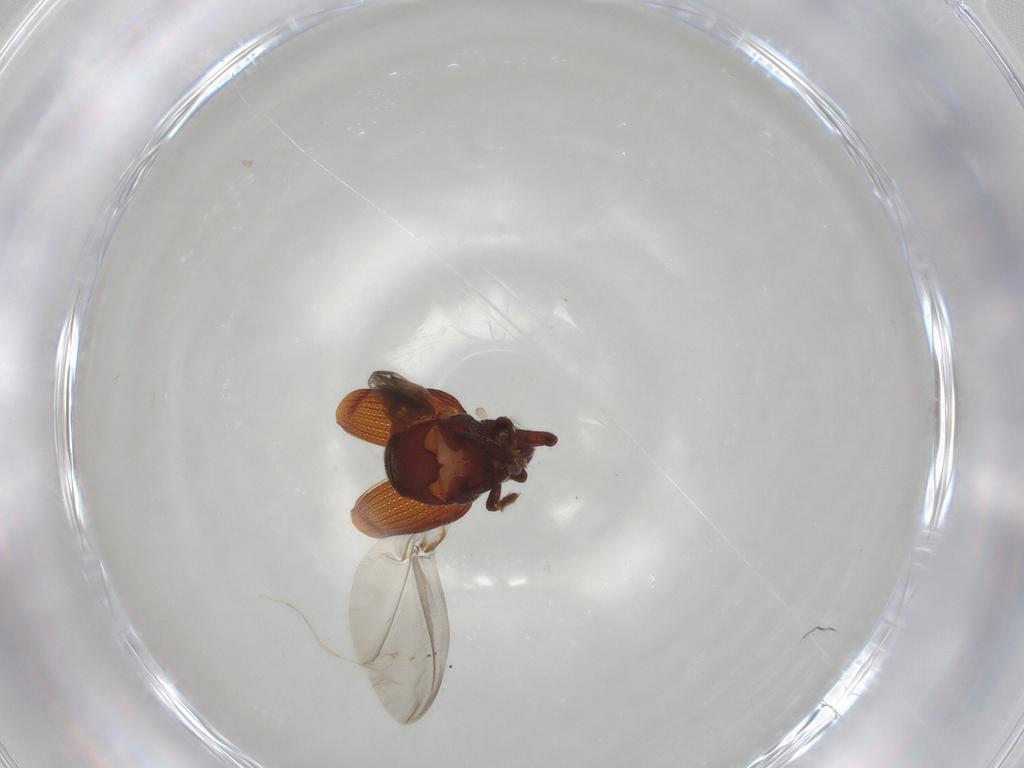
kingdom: Animalia
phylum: Arthropoda
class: Insecta
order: Coleoptera
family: Curculionidae
